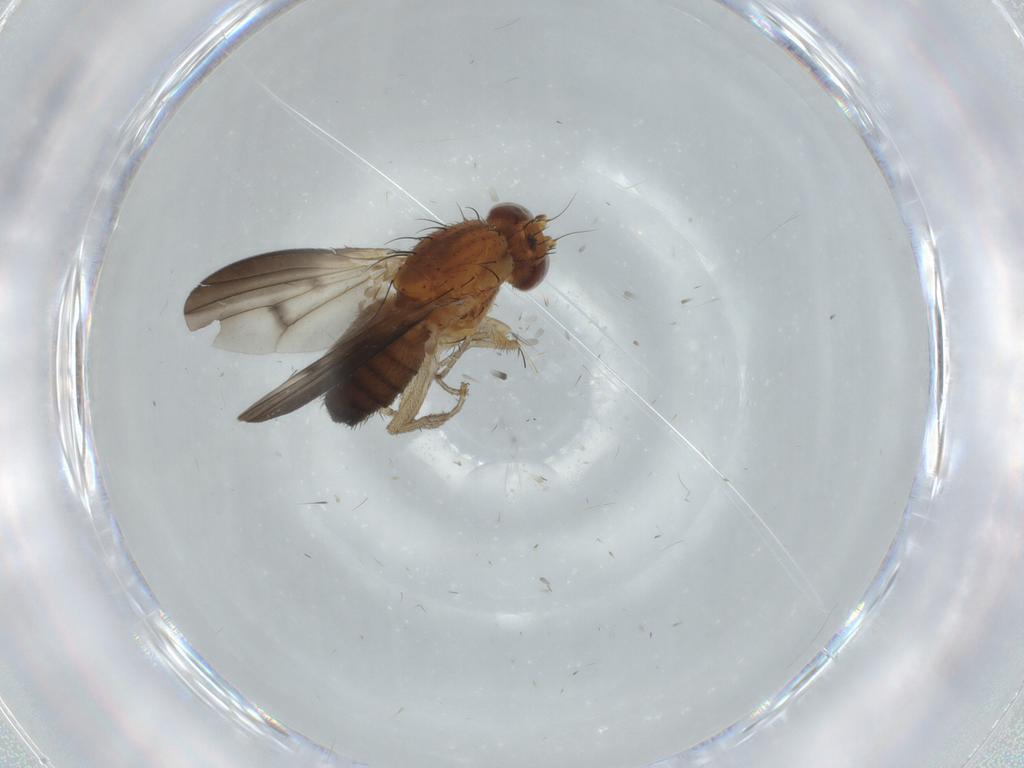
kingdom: Animalia
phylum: Arthropoda
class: Insecta
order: Diptera
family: Heleomyzidae
